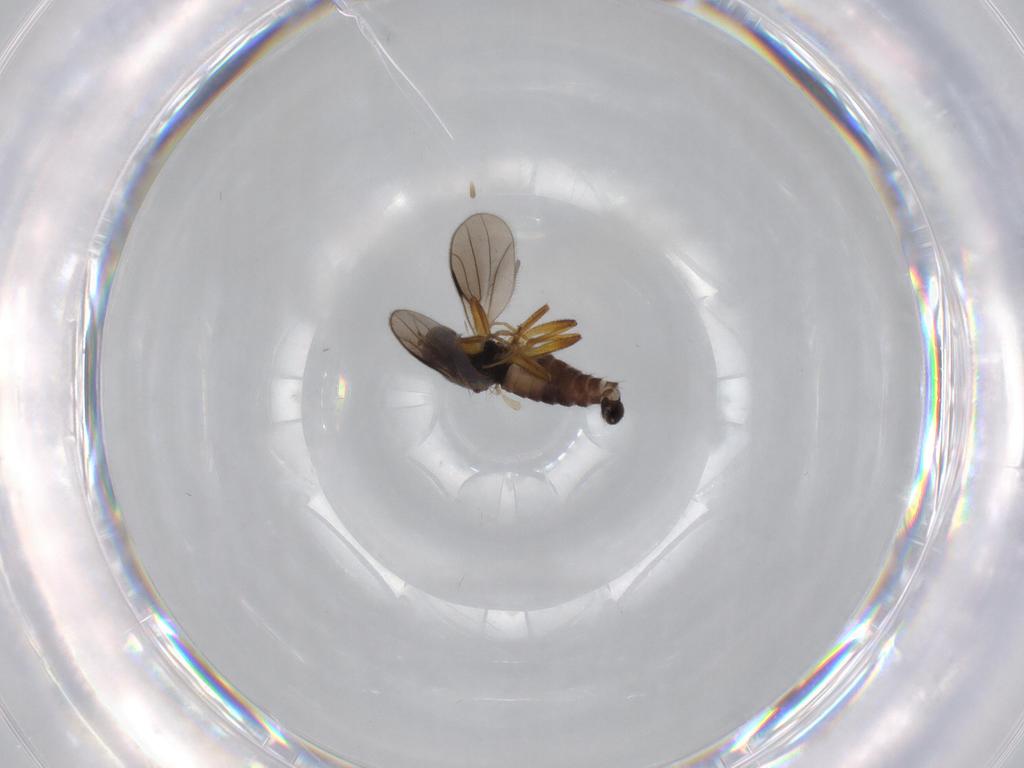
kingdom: Animalia
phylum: Arthropoda
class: Insecta
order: Diptera
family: Hybotidae
